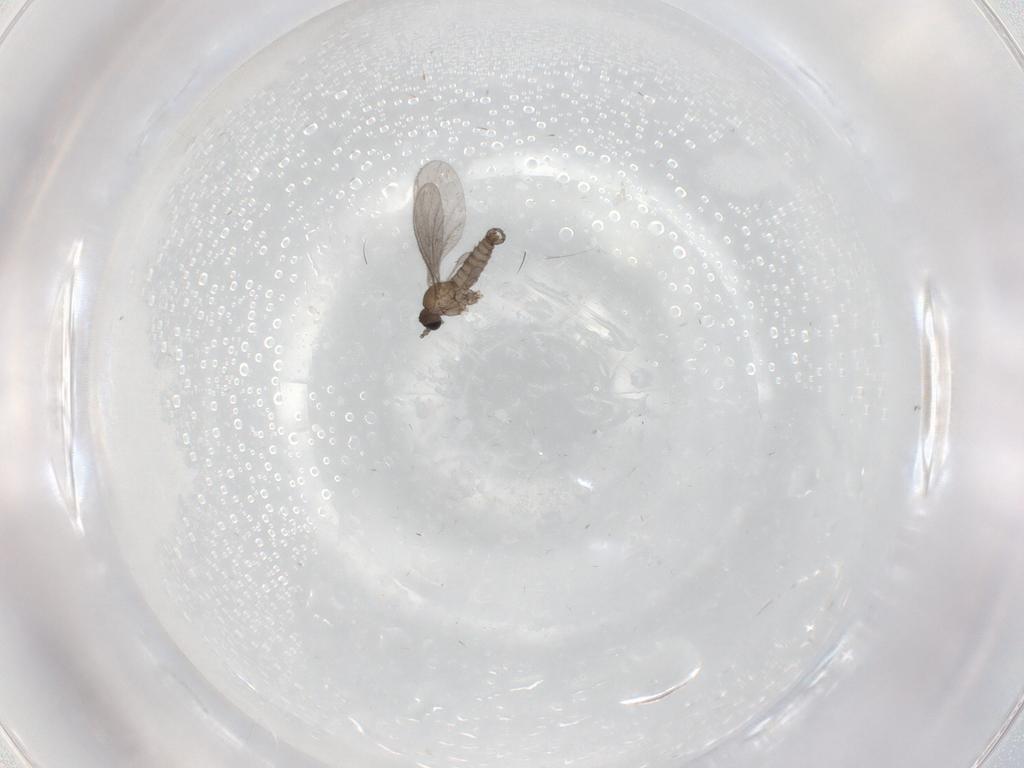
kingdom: Animalia
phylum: Arthropoda
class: Insecta
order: Diptera
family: Sciaridae
